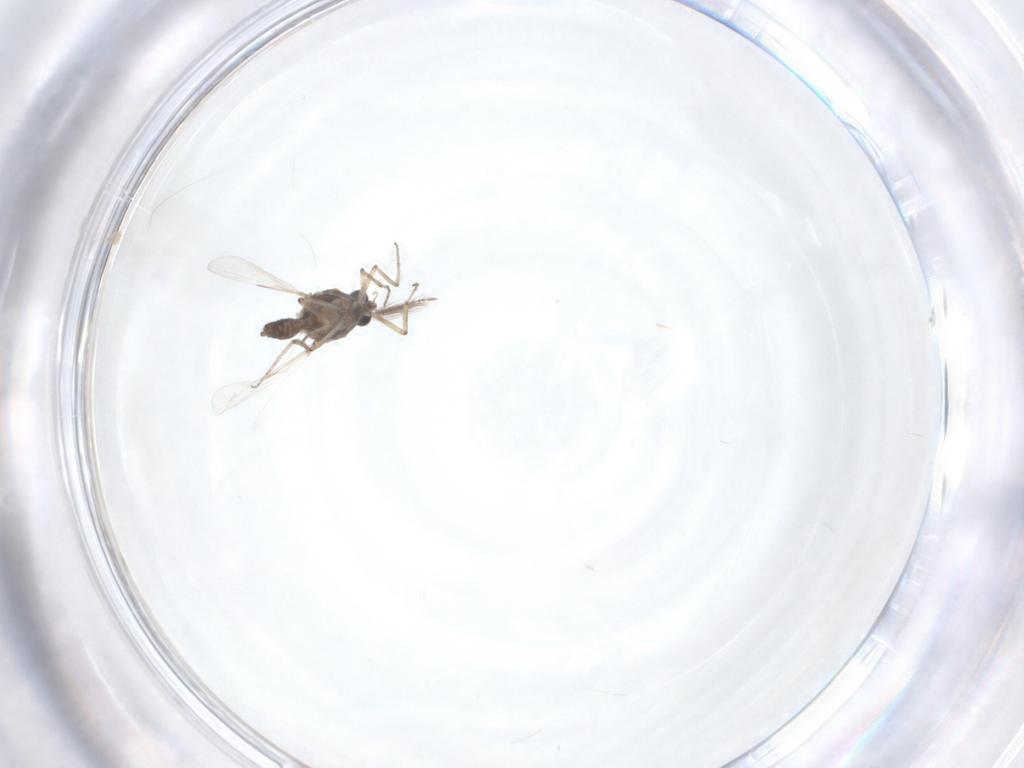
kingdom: Animalia
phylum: Arthropoda
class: Insecta
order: Diptera
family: Ceratopogonidae
